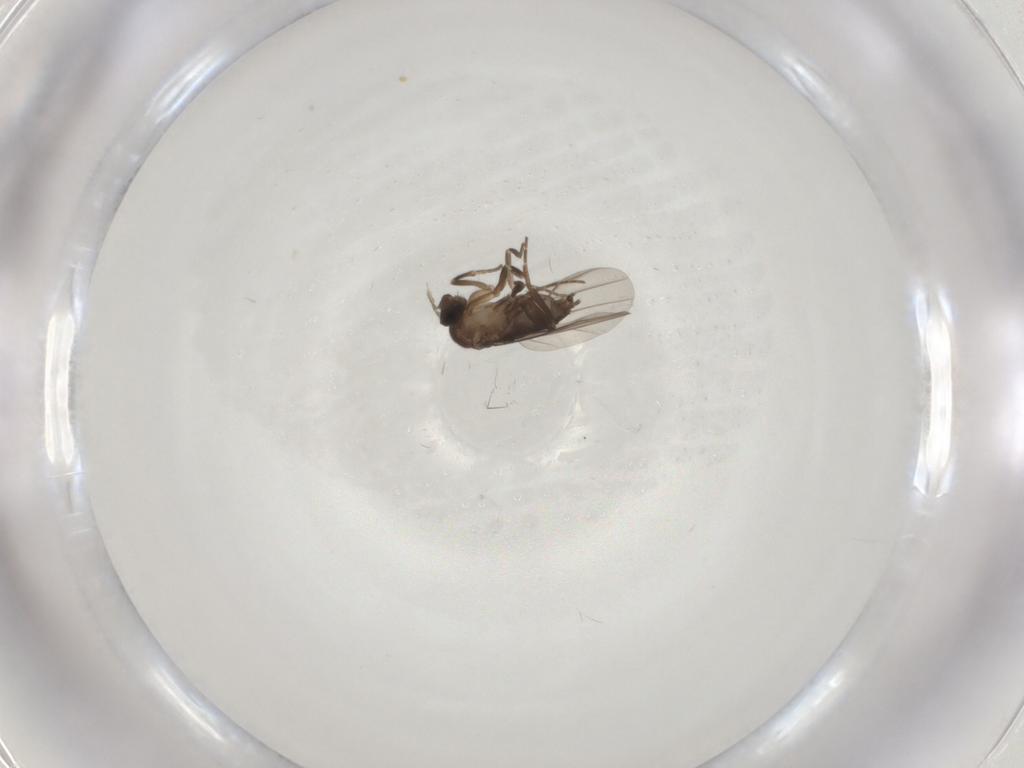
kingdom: Animalia
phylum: Arthropoda
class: Insecta
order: Diptera
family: Phoridae
